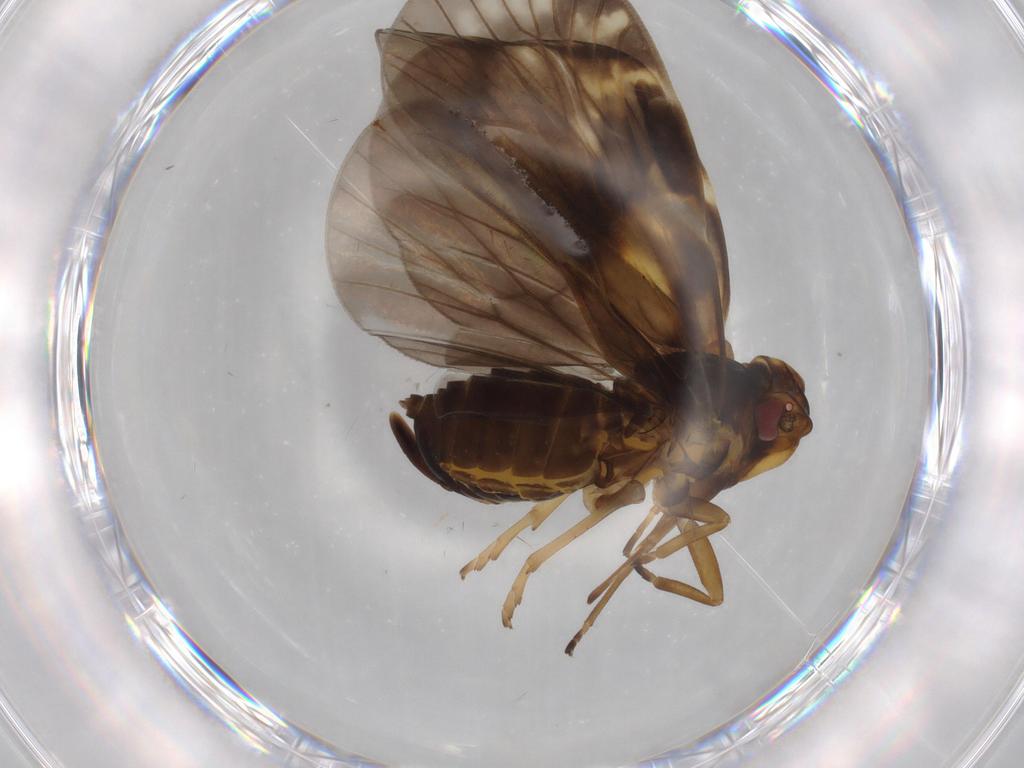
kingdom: Animalia
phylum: Arthropoda
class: Insecta
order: Hemiptera
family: Cixiidae
